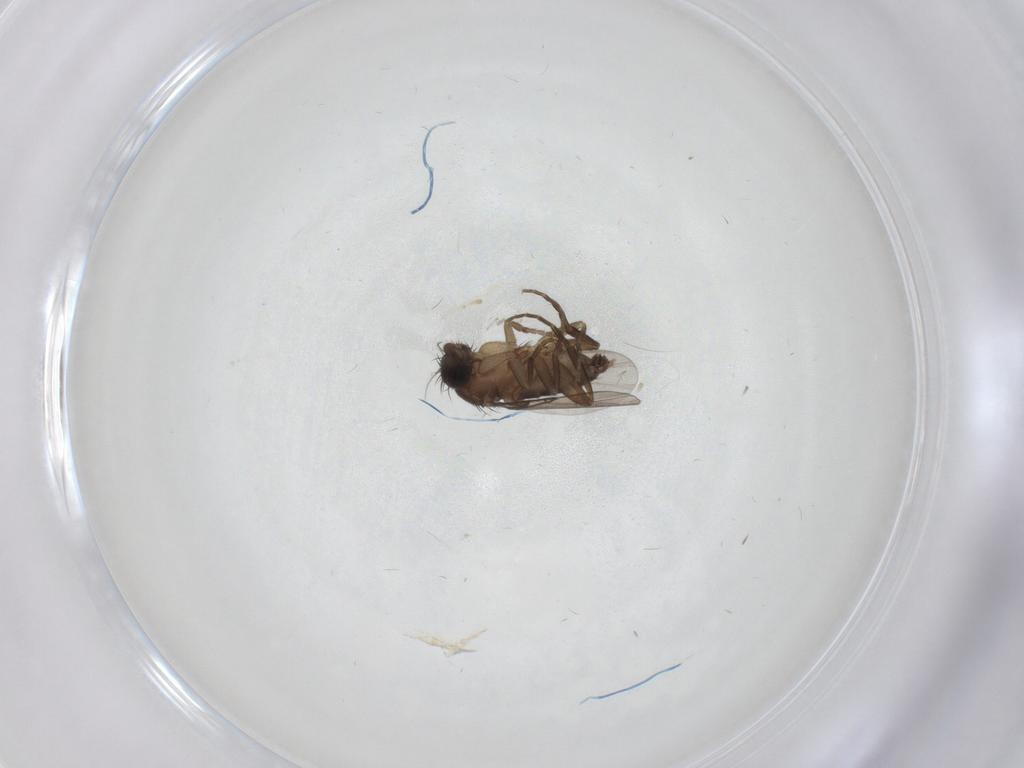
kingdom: Animalia
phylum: Arthropoda
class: Insecta
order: Diptera
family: Phoridae
